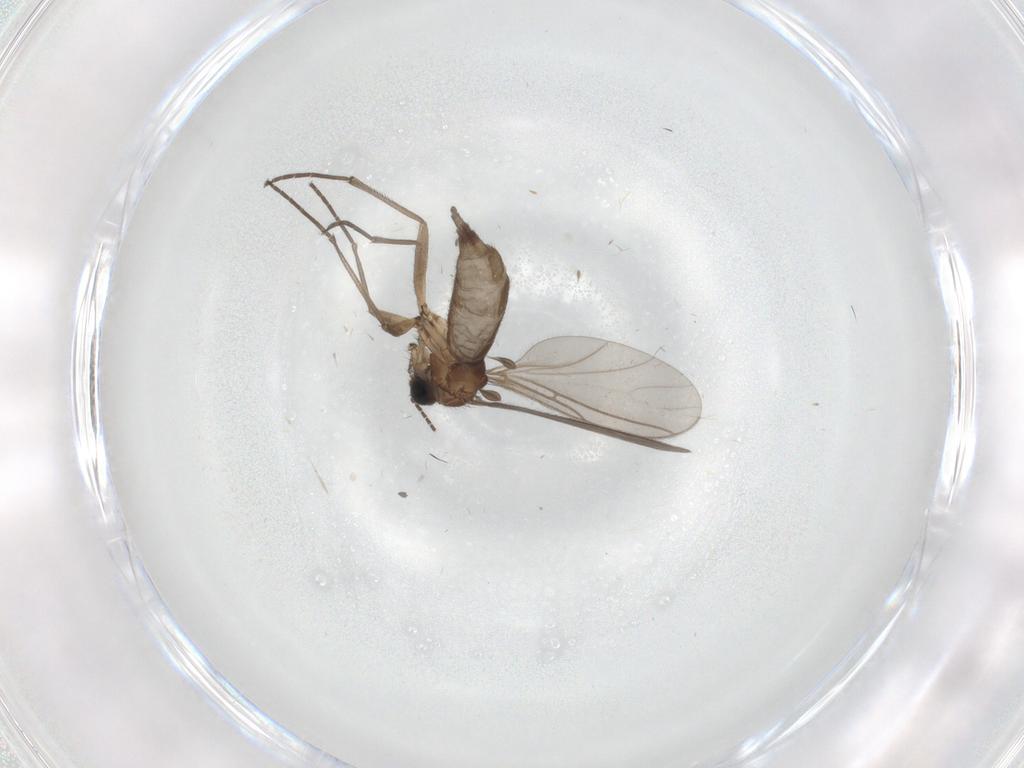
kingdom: Animalia
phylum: Arthropoda
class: Insecta
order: Diptera
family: Sciaridae
